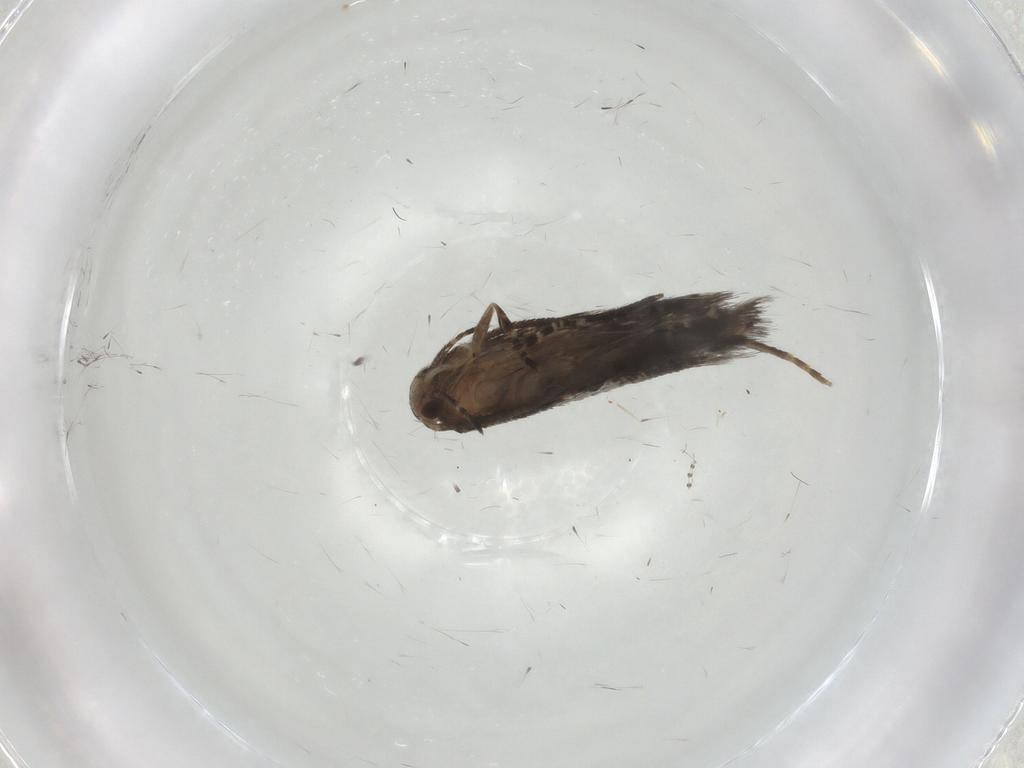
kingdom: Animalia
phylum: Arthropoda
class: Insecta
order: Lepidoptera
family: Elachistidae
